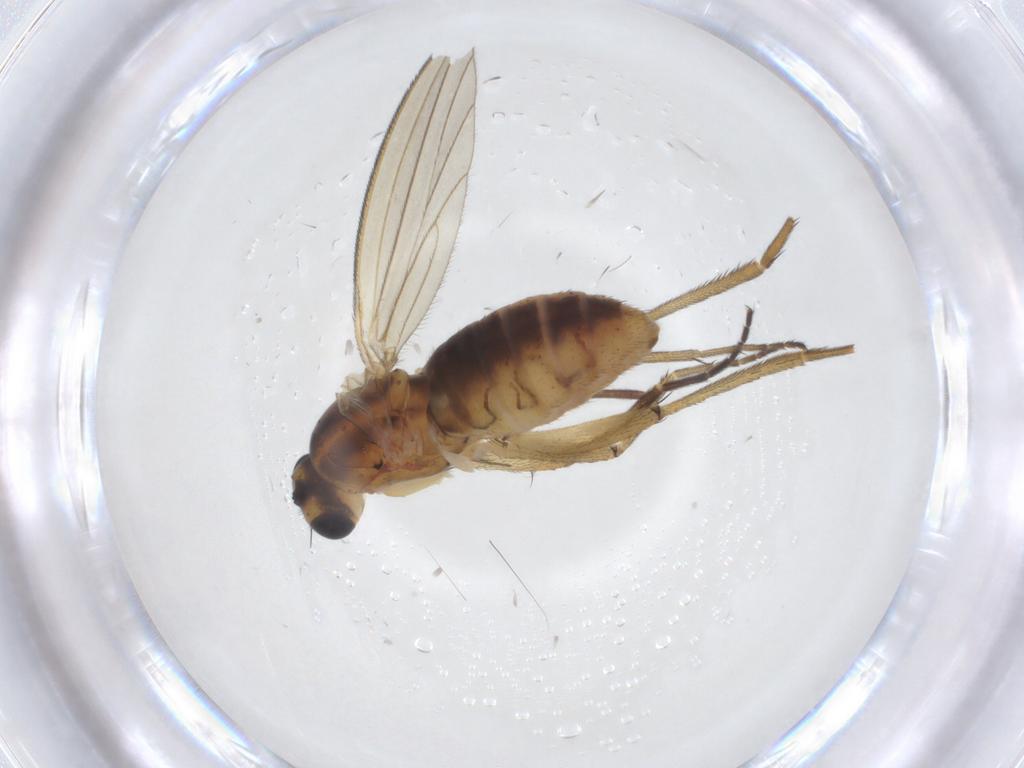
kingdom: Animalia
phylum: Arthropoda
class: Insecta
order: Diptera
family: Lonchopteridae
